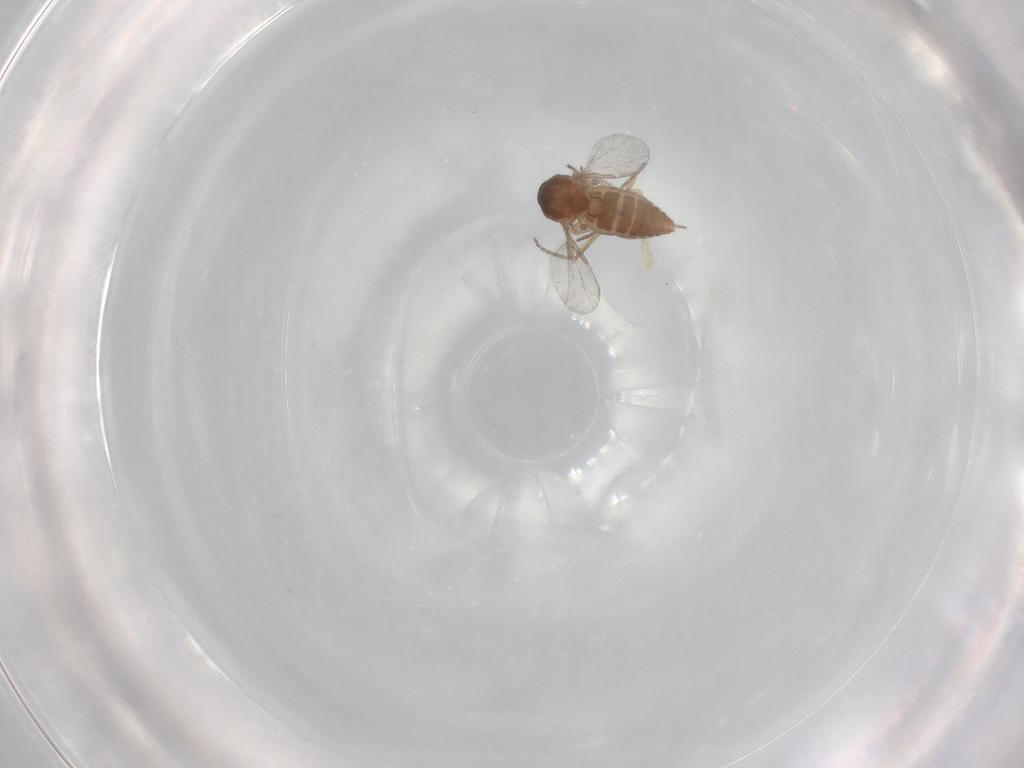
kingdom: Animalia
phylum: Arthropoda
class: Insecta
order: Diptera
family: Ceratopogonidae
